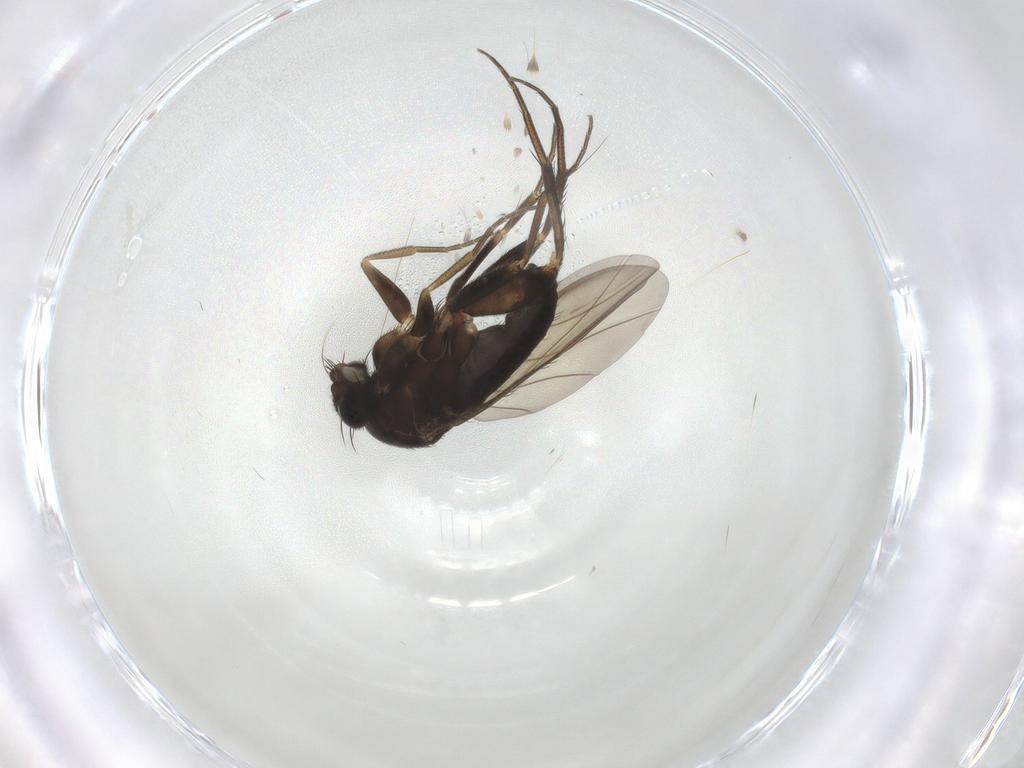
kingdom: Animalia
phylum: Arthropoda
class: Insecta
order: Diptera
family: Phoridae
